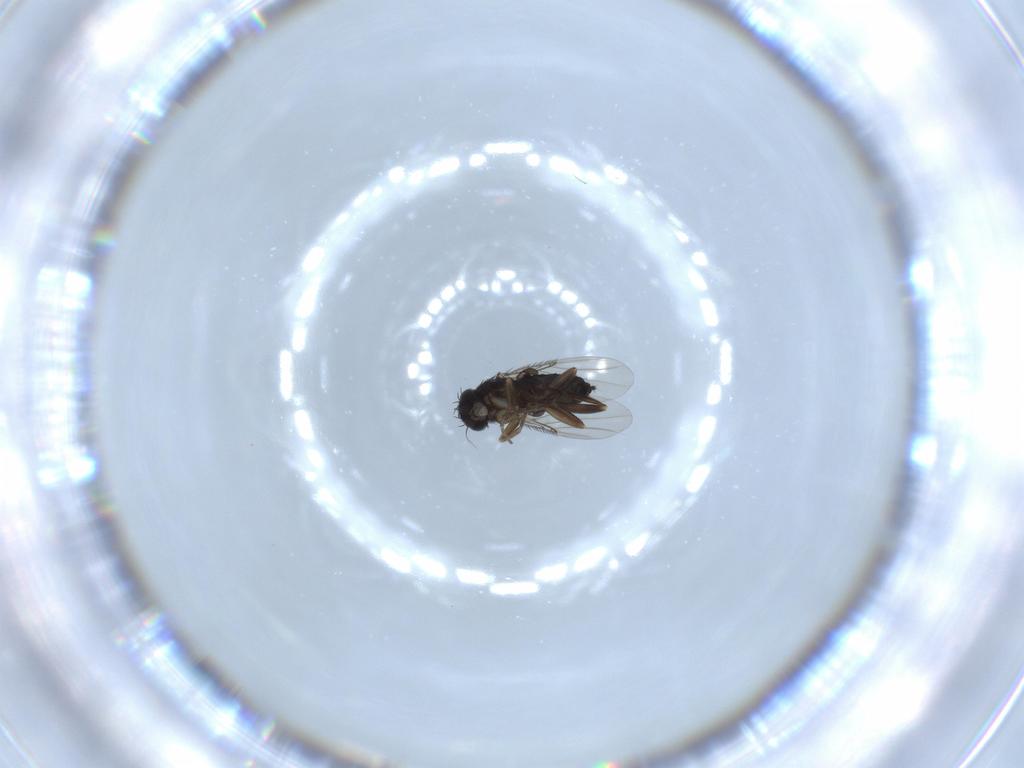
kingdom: Animalia
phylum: Arthropoda
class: Insecta
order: Diptera
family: Phoridae
